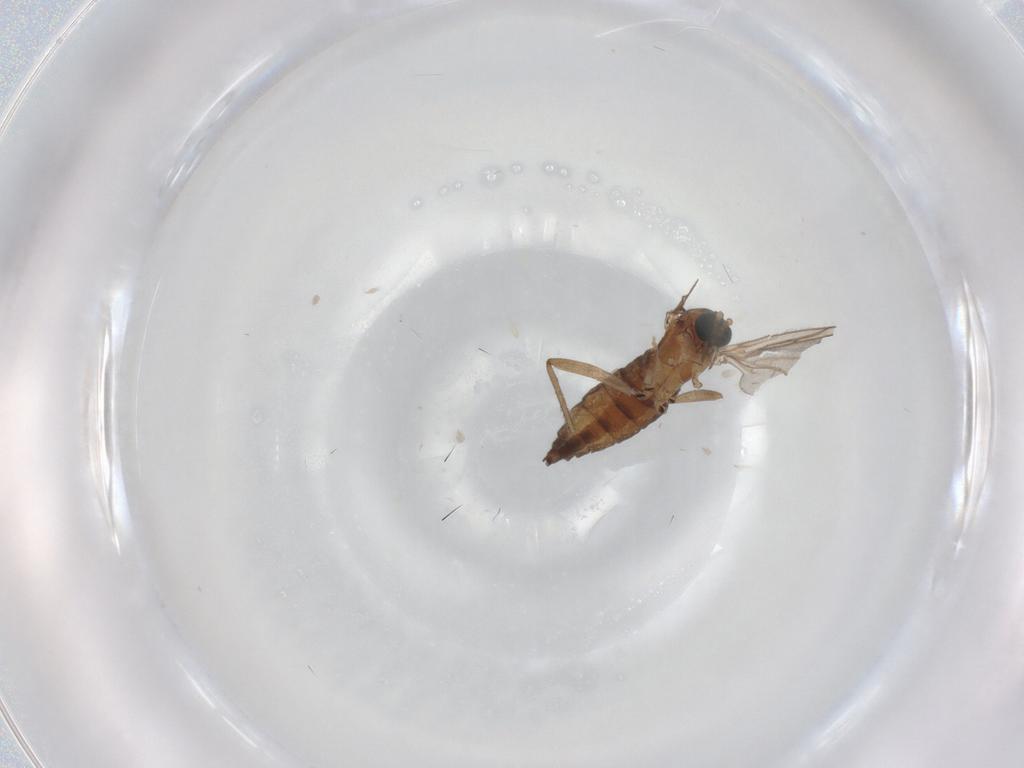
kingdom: Animalia
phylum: Arthropoda
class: Insecta
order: Diptera
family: Sciaridae
